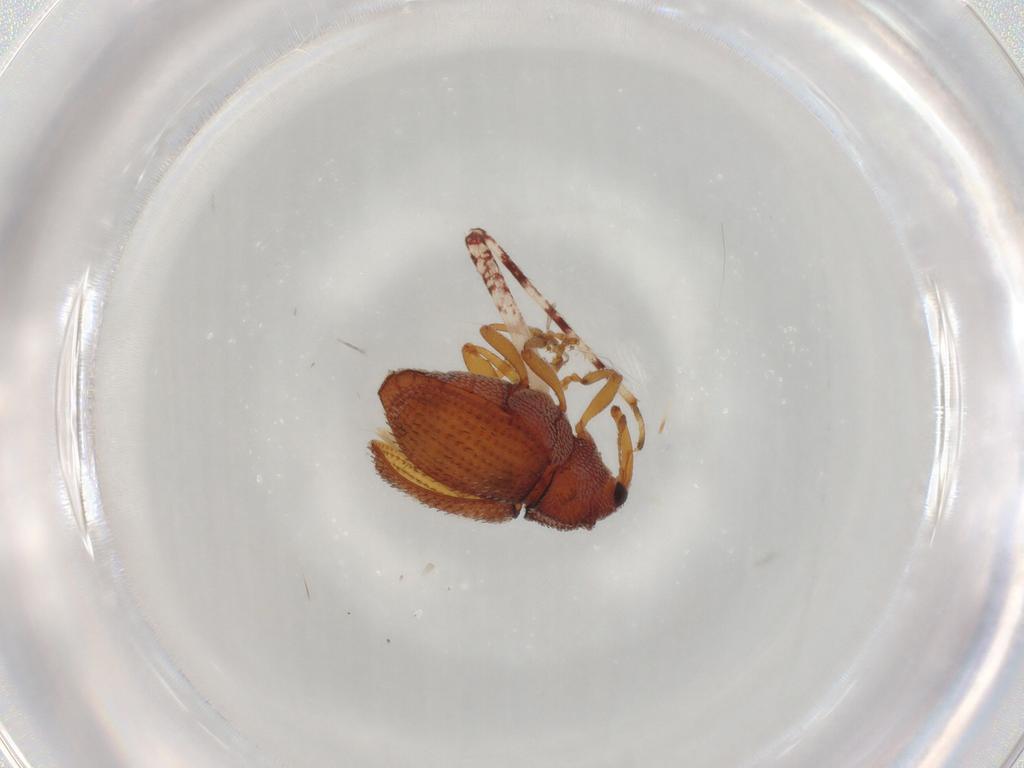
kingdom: Animalia
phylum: Arthropoda
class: Insecta
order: Coleoptera
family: Curculionidae
